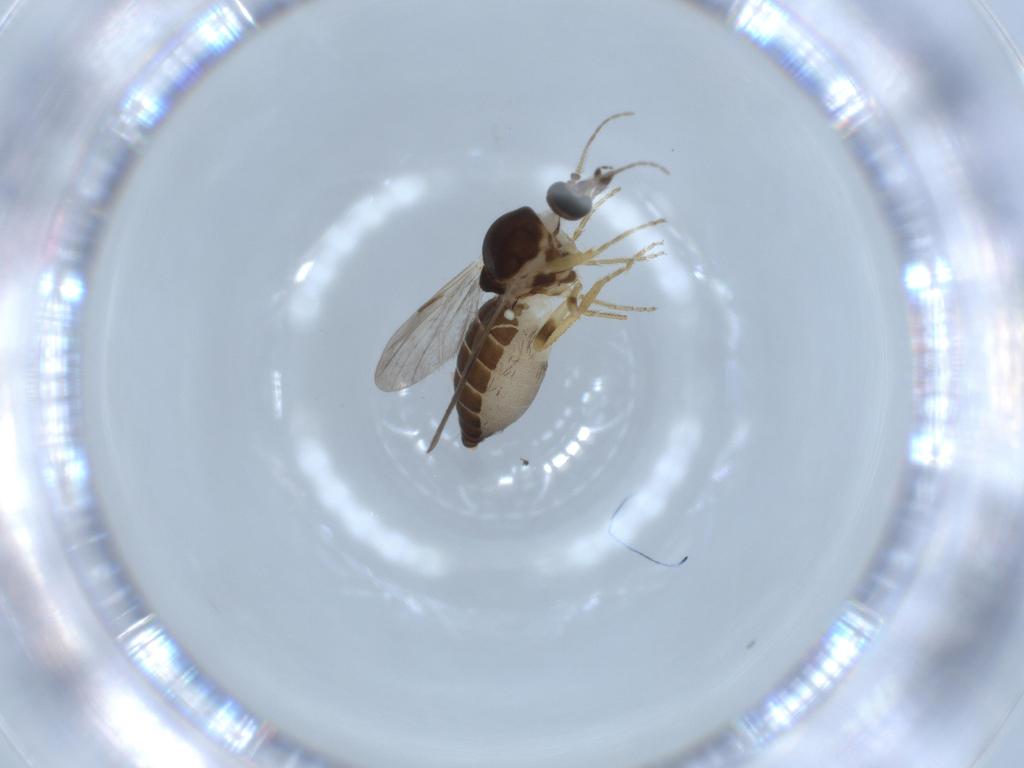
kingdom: Animalia
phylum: Arthropoda
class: Insecta
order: Diptera
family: Ceratopogonidae
